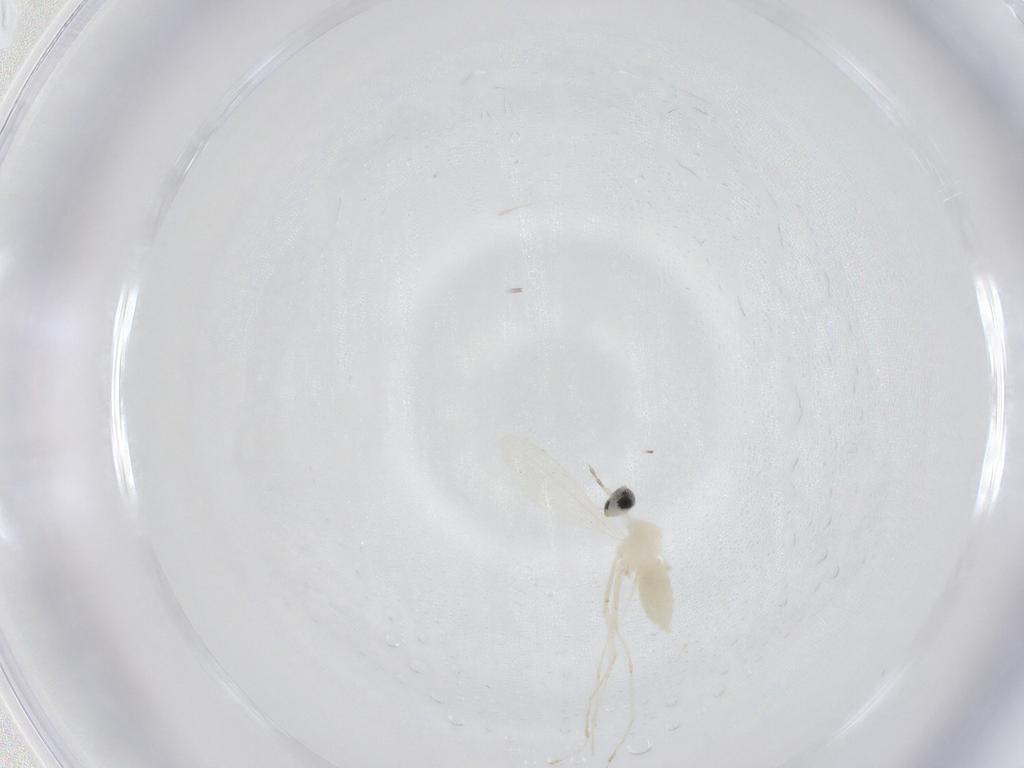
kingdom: Animalia
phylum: Arthropoda
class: Insecta
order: Diptera
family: Cecidomyiidae
